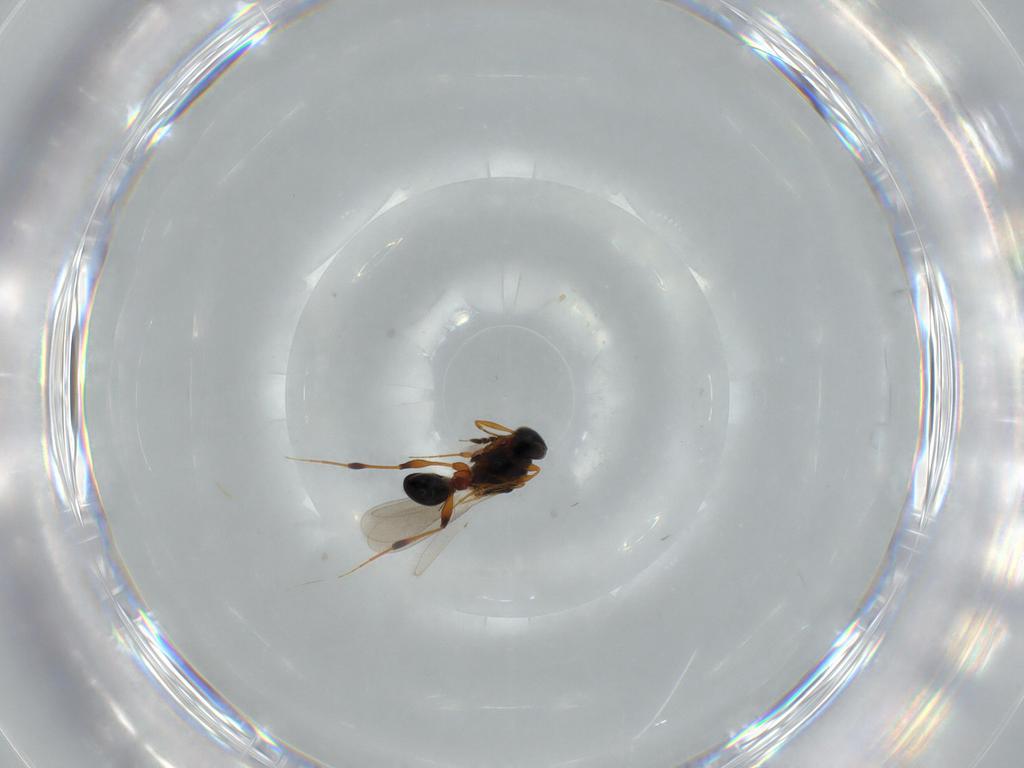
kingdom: Animalia
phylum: Arthropoda
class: Insecta
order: Hymenoptera
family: Platygastridae
